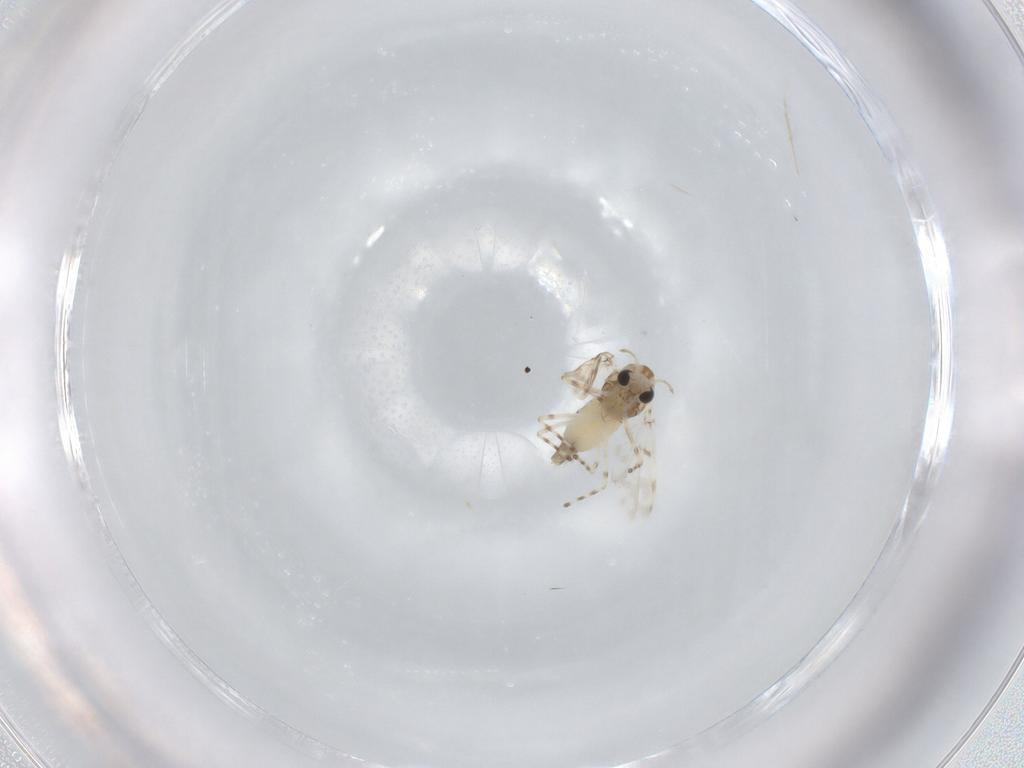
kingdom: Animalia
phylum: Arthropoda
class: Insecta
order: Diptera
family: Chironomidae
